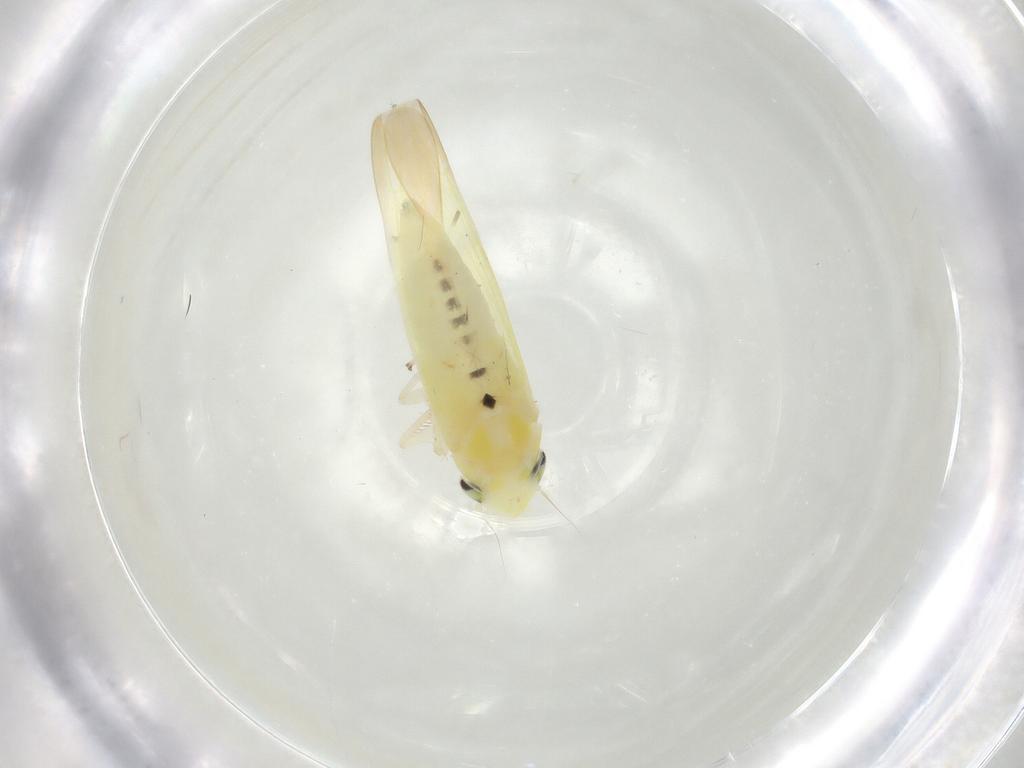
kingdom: Animalia
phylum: Arthropoda
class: Insecta
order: Hemiptera
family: Cicadellidae
